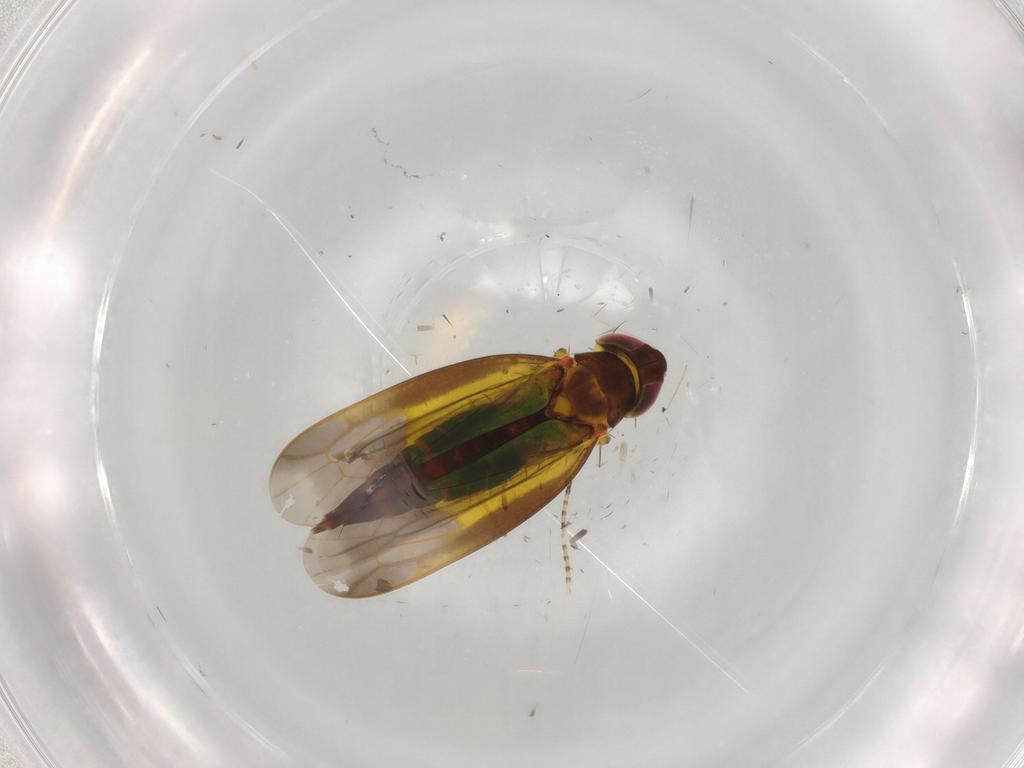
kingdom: Animalia
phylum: Arthropoda
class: Insecta
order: Hemiptera
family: Cicadellidae
